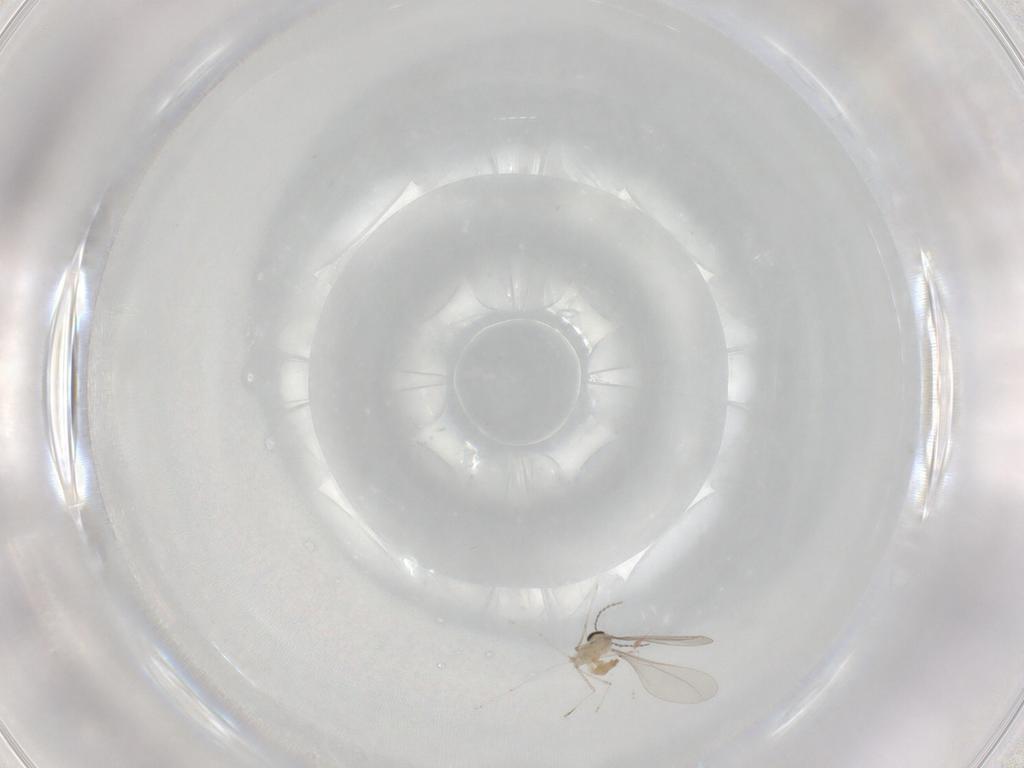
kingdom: Animalia
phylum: Arthropoda
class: Insecta
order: Diptera
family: Cecidomyiidae
